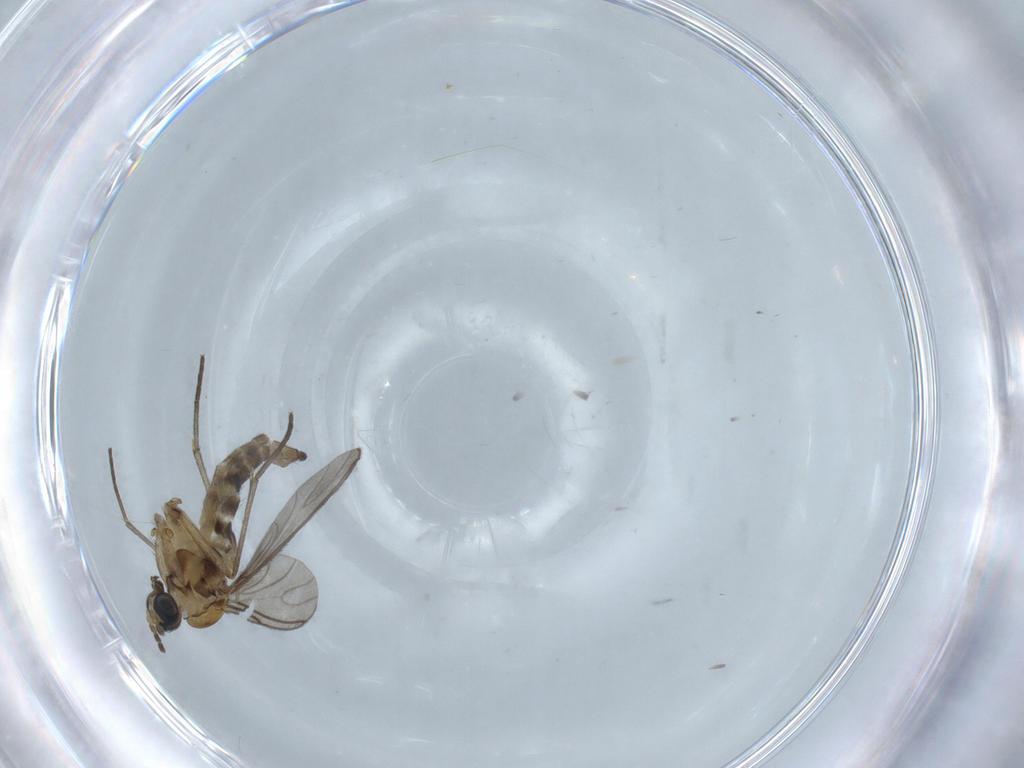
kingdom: Animalia
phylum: Arthropoda
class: Insecta
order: Diptera
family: Sciaridae
